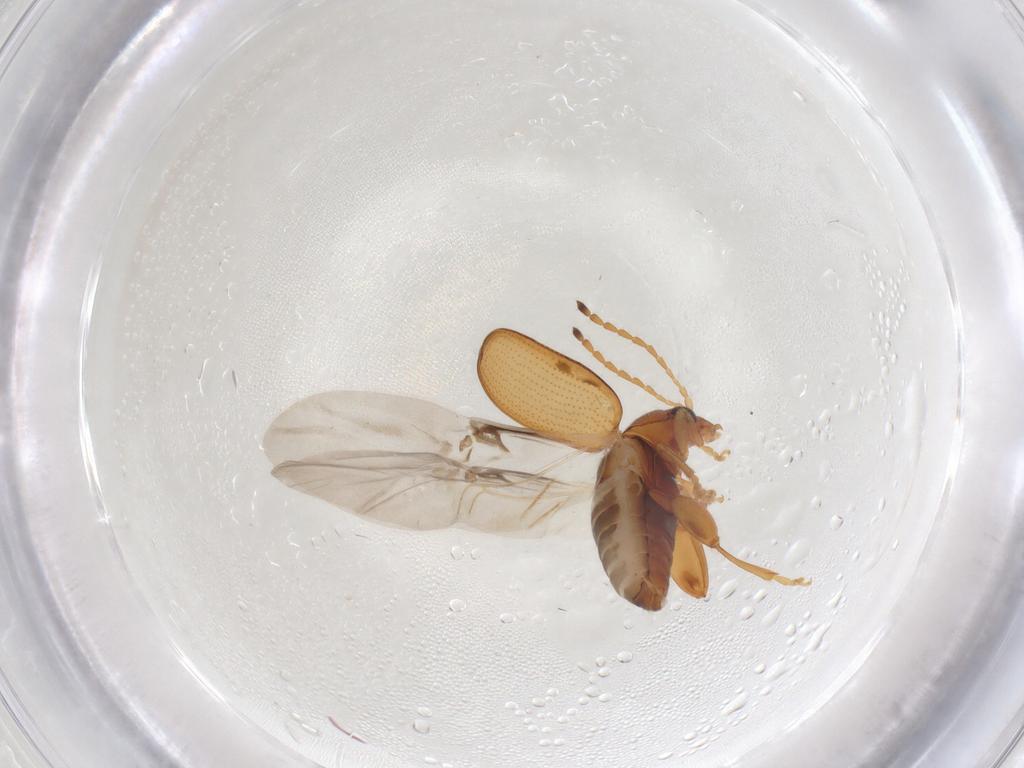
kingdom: Animalia
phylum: Arthropoda
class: Insecta
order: Coleoptera
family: Chrysomelidae
